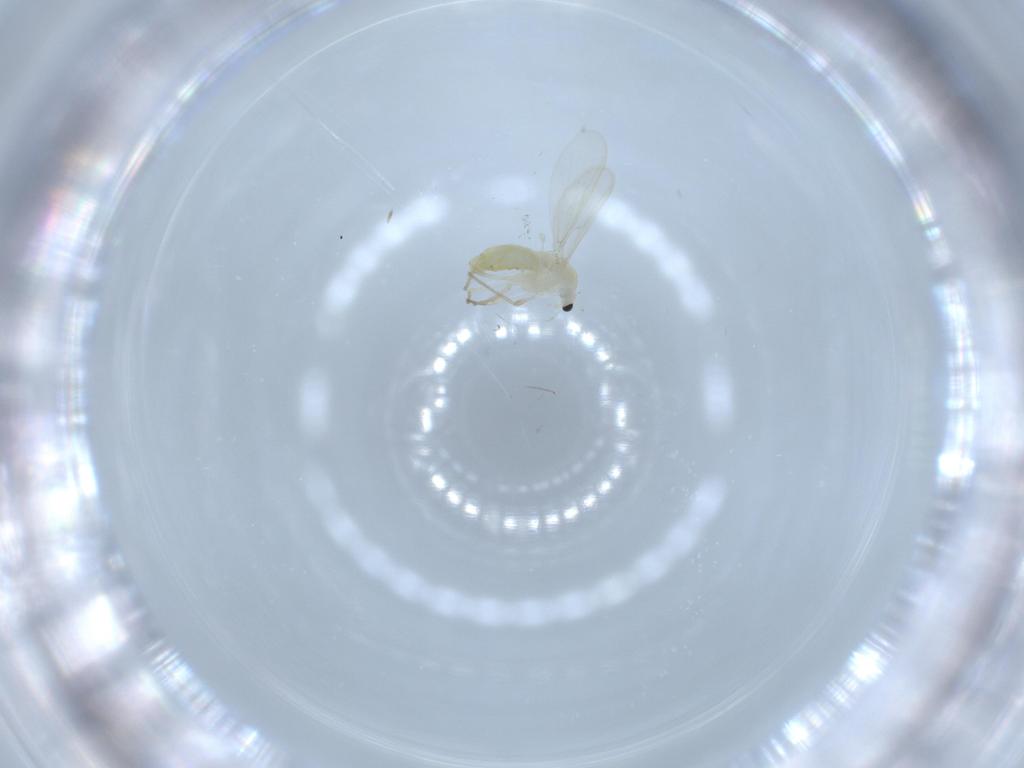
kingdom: Animalia
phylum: Arthropoda
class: Insecta
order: Diptera
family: Chironomidae
